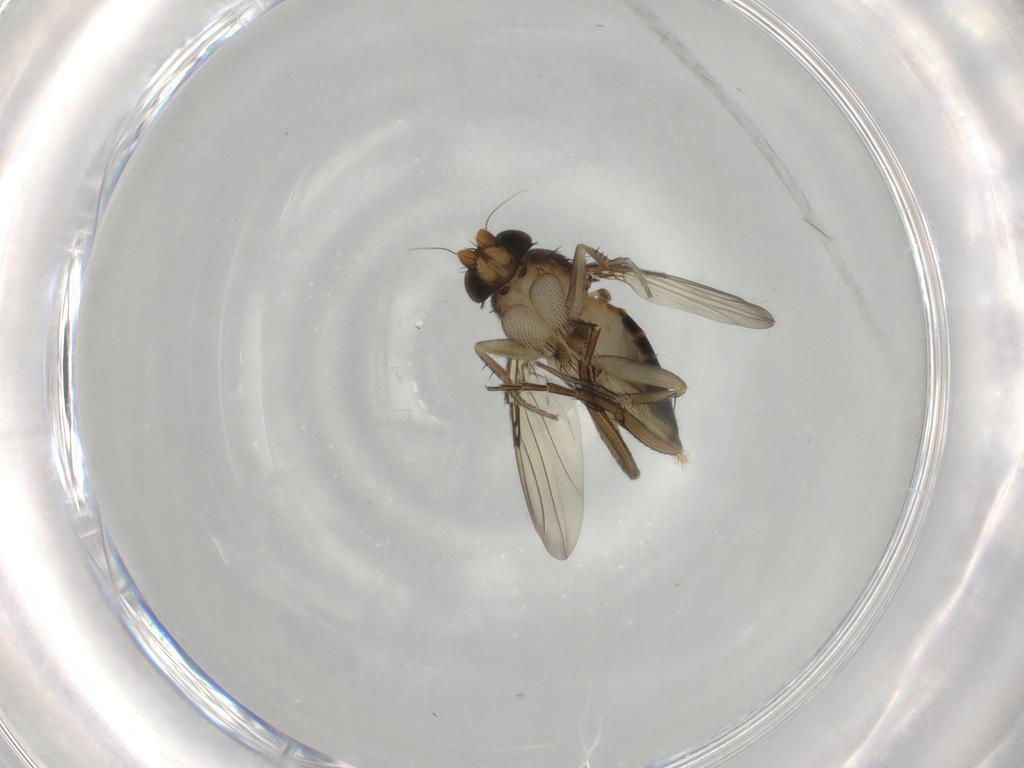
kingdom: Animalia
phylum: Arthropoda
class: Insecta
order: Diptera
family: Phoridae
